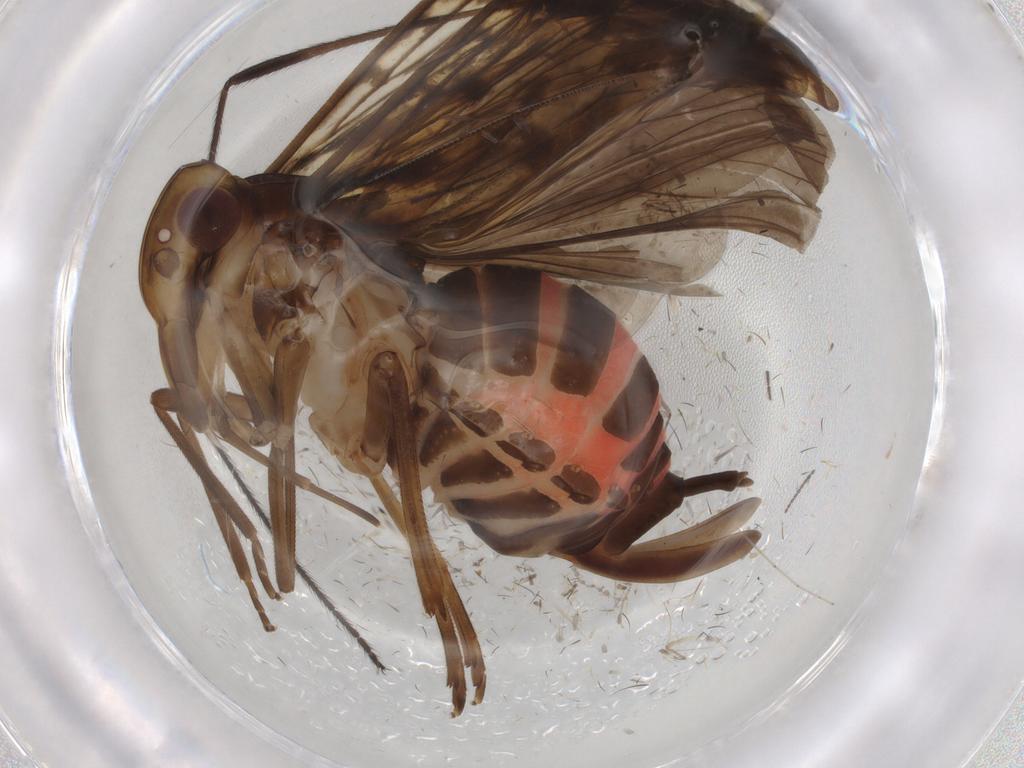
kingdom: Animalia
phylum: Arthropoda
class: Insecta
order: Hemiptera
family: Cixiidae
